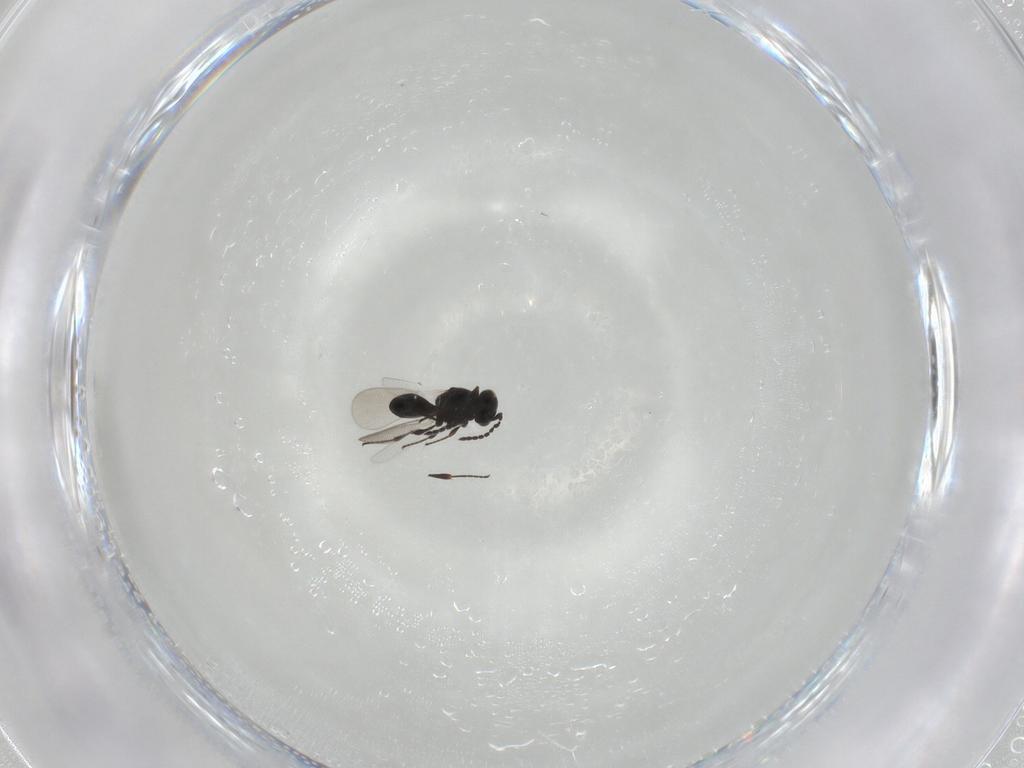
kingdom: Animalia
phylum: Arthropoda
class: Insecta
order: Hymenoptera
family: Platygastridae
